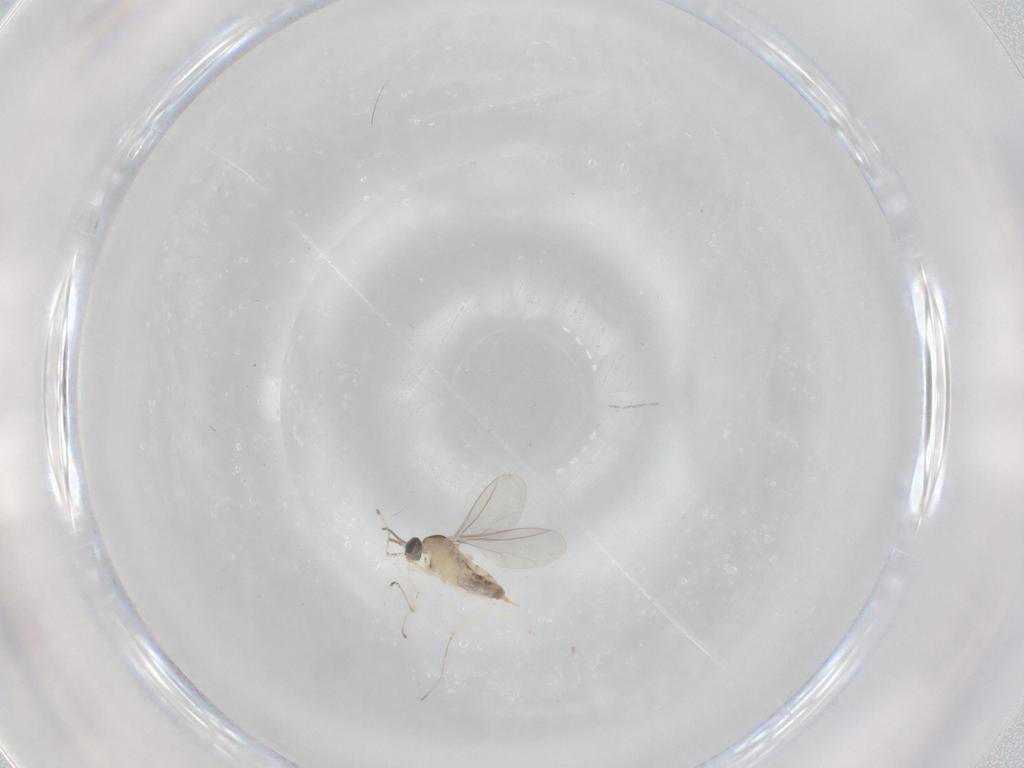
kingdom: Animalia
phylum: Arthropoda
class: Insecta
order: Diptera
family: Cecidomyiidae
